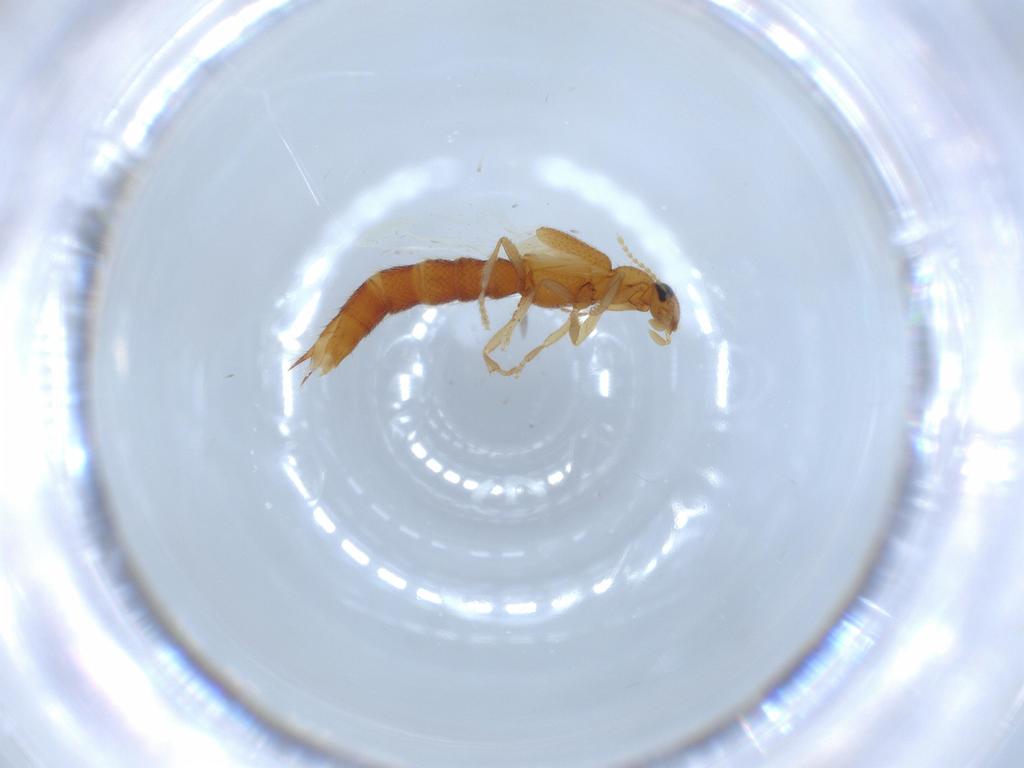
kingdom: Animalia
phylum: Arthropoda
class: Insecta
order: Coleoptera
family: Staphylinidae
